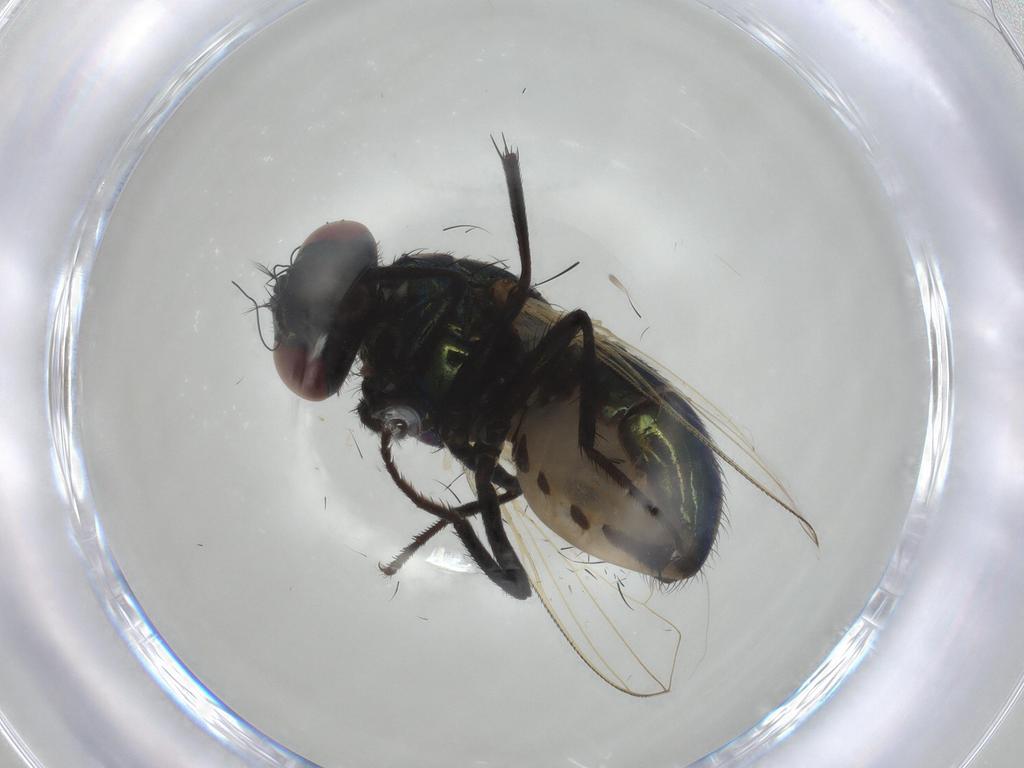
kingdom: Animalia
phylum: Arthropoda
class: Insecta
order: Diptera
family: Muscidae
